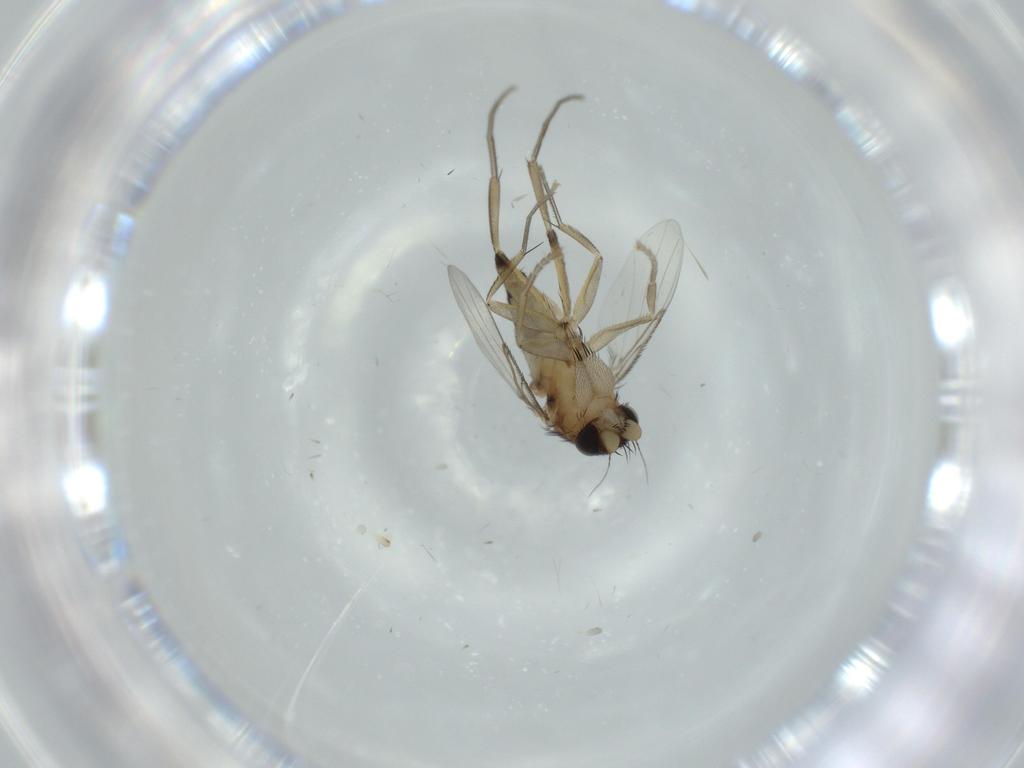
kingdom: Animalia
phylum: Arthropoda
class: Insecta
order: Diptera
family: Phoridae
